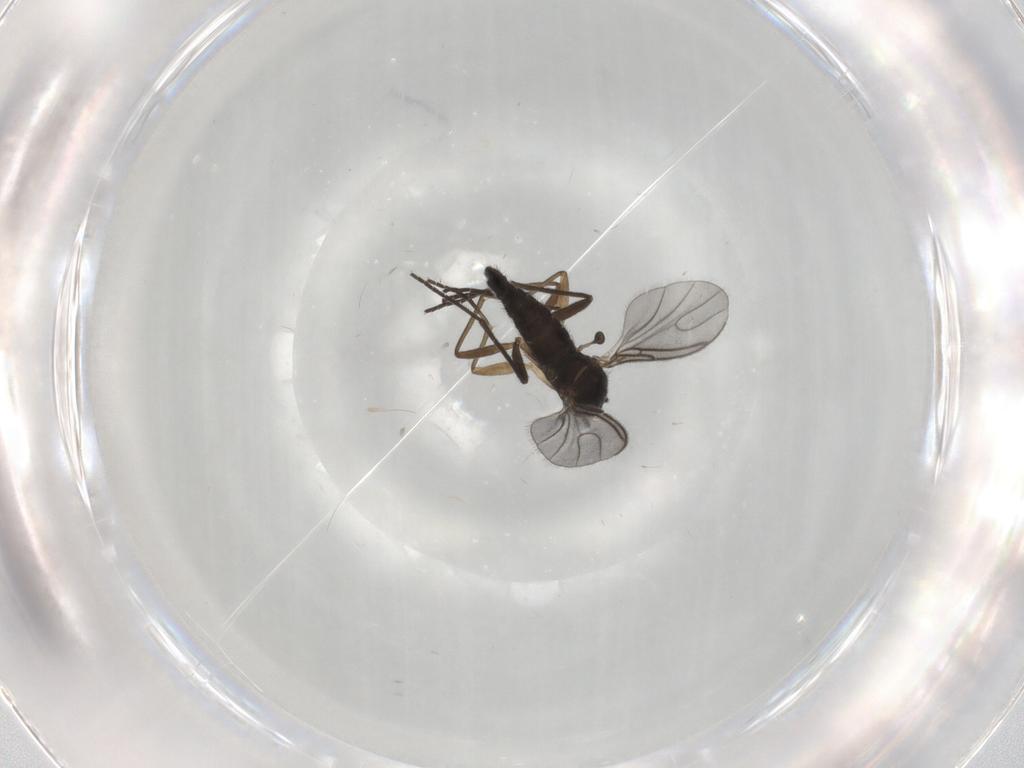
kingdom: Animalia
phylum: Arthropoda
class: Insecta
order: Diptera
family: Sciaridae
